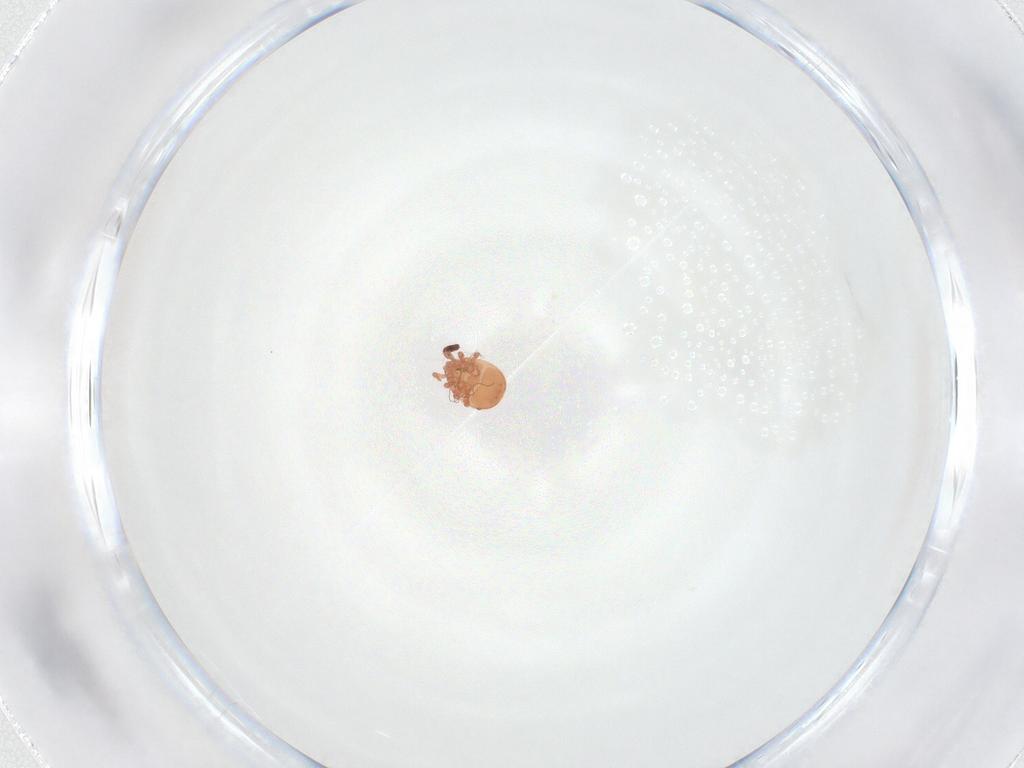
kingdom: Animalia
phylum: Arthropoda
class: Arachnida
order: Mesostigmata
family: Zerconidae
